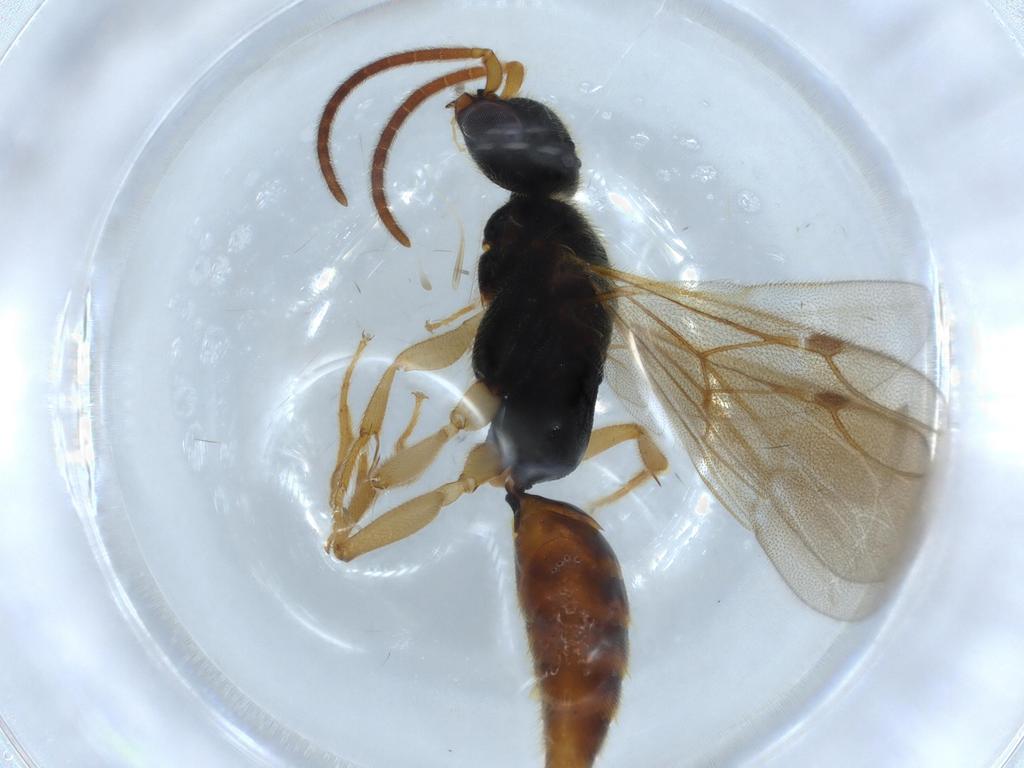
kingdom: Animalia
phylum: Arthropoda
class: Insecta
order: Hymenoptera
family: Bethylidae
